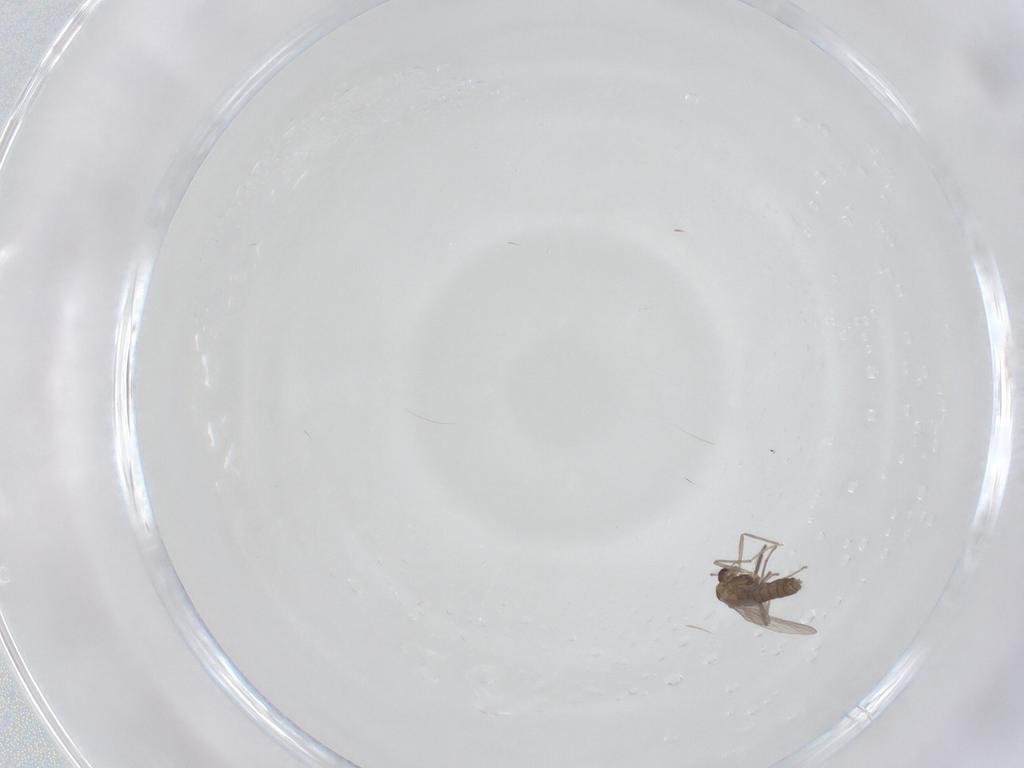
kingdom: Animalia
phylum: Arthropoda
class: Insecta
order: Diptera
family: Chironomidae
